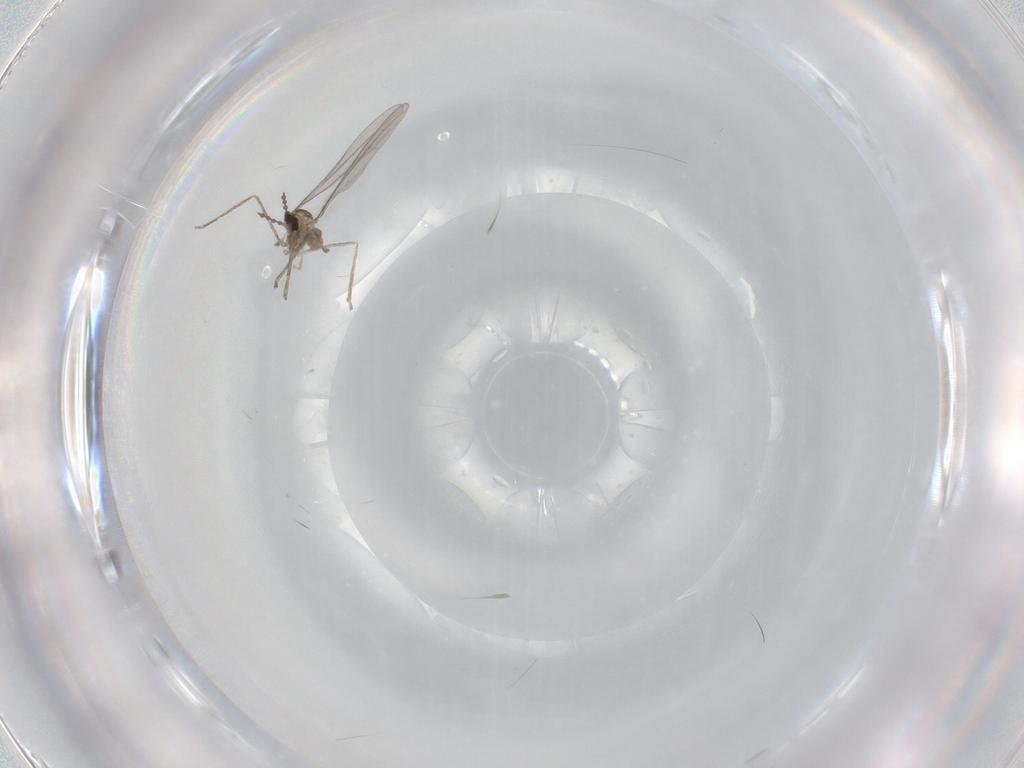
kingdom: Animalia
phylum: Arthropoda
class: Insecta
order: Diptera
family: Cecidomyiidae
